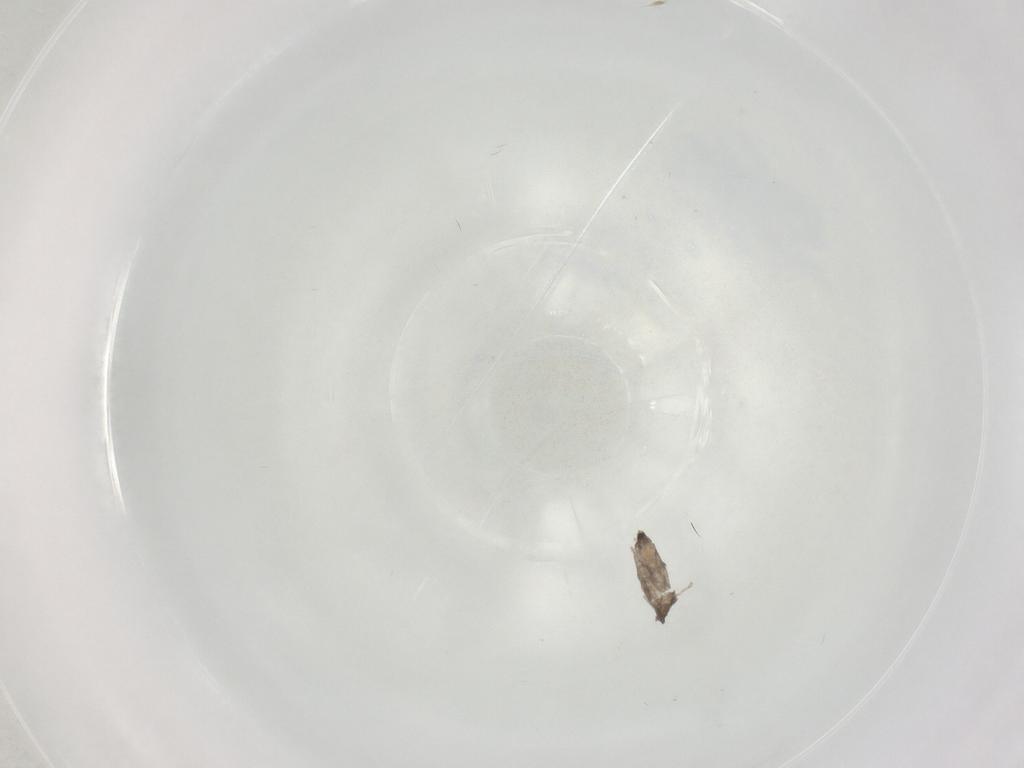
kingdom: Animalia
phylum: Arthropoda
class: Insecta
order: Diptera
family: Cecidomyiidae
